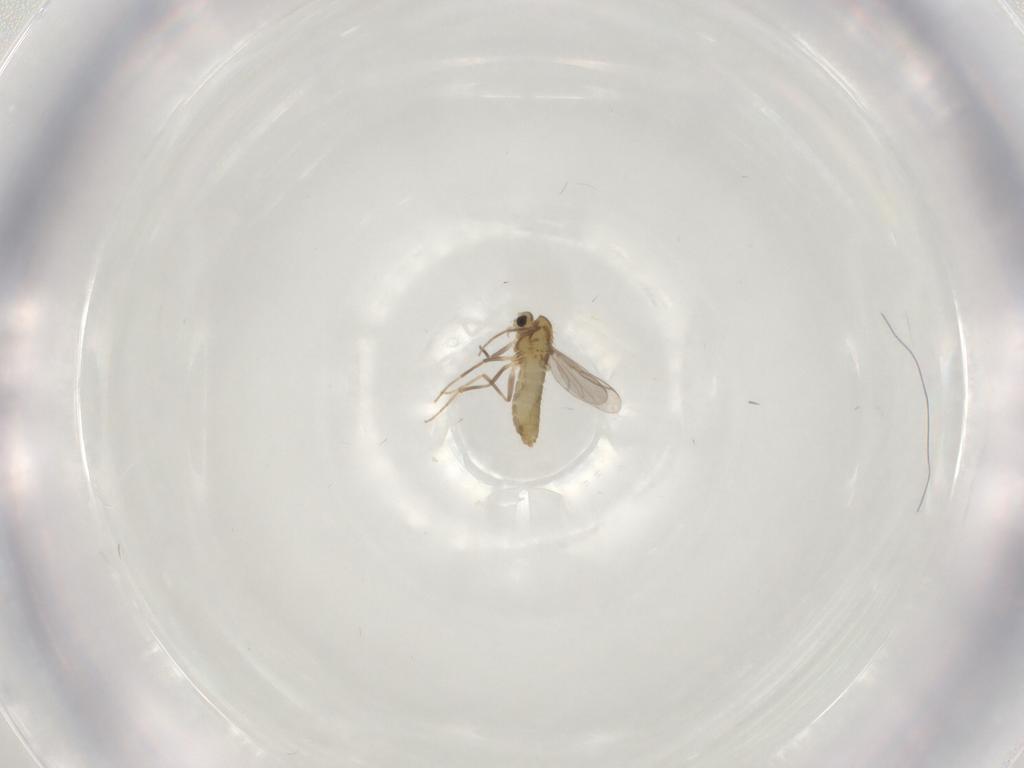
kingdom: Animalia
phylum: Arthropoda
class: Insecta
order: Diptera
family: Chironomidae
